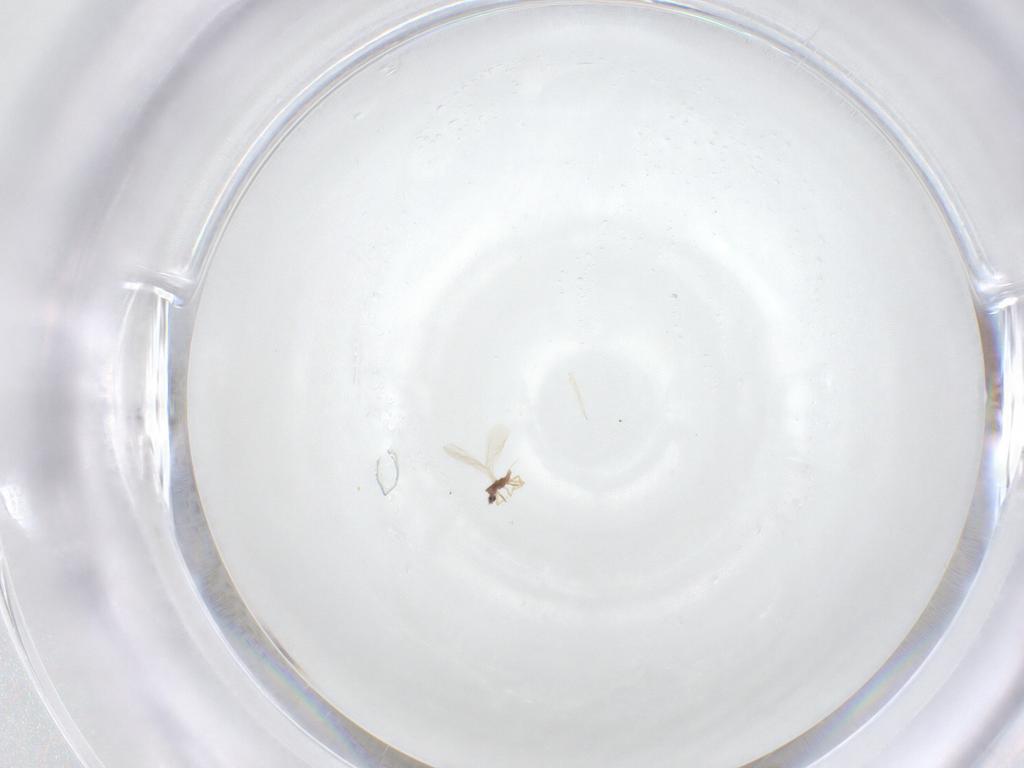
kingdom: Animalia
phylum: Arthropoda
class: Insecta
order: Hemiptera
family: Diaspididae
